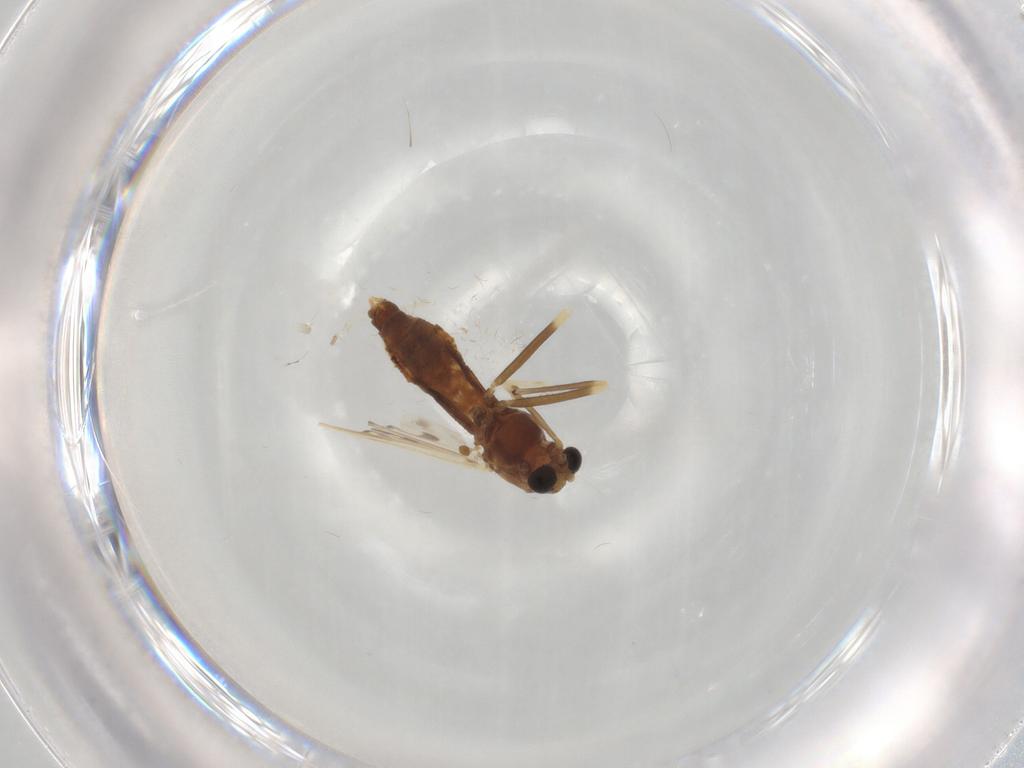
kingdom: Animalia
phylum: Arthropoda
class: Insecta
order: Diptera
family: Chironomidae
